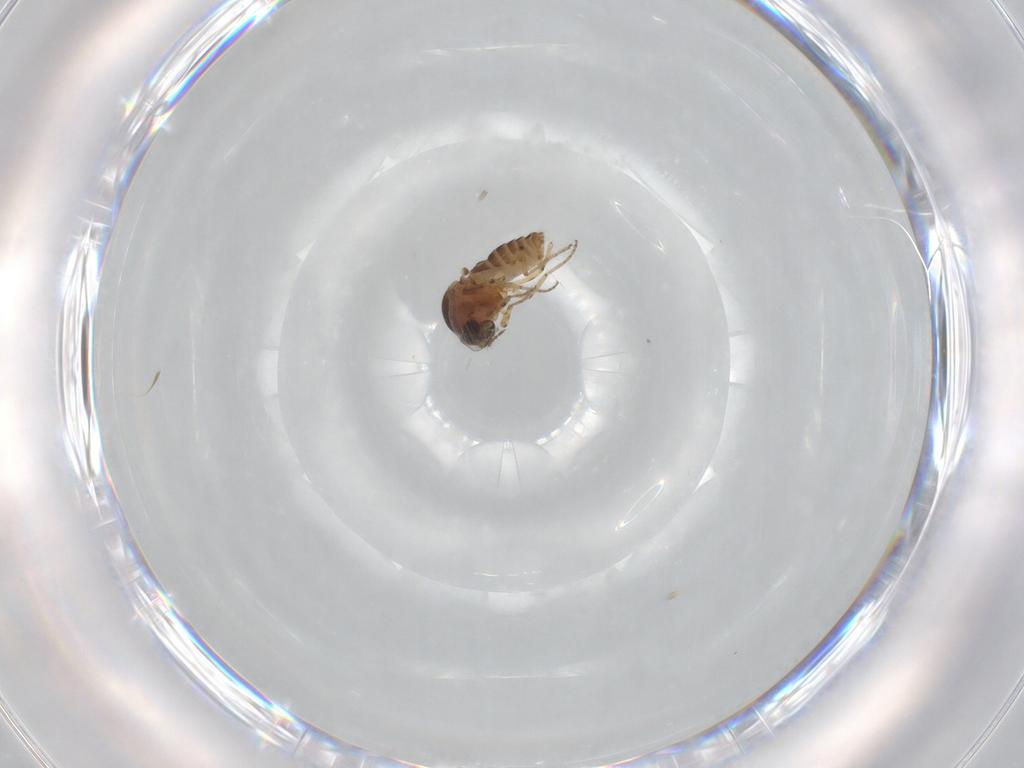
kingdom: Animalia
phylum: Arthropoda
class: Insecta
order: Diptera
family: Ceratopogonidae
